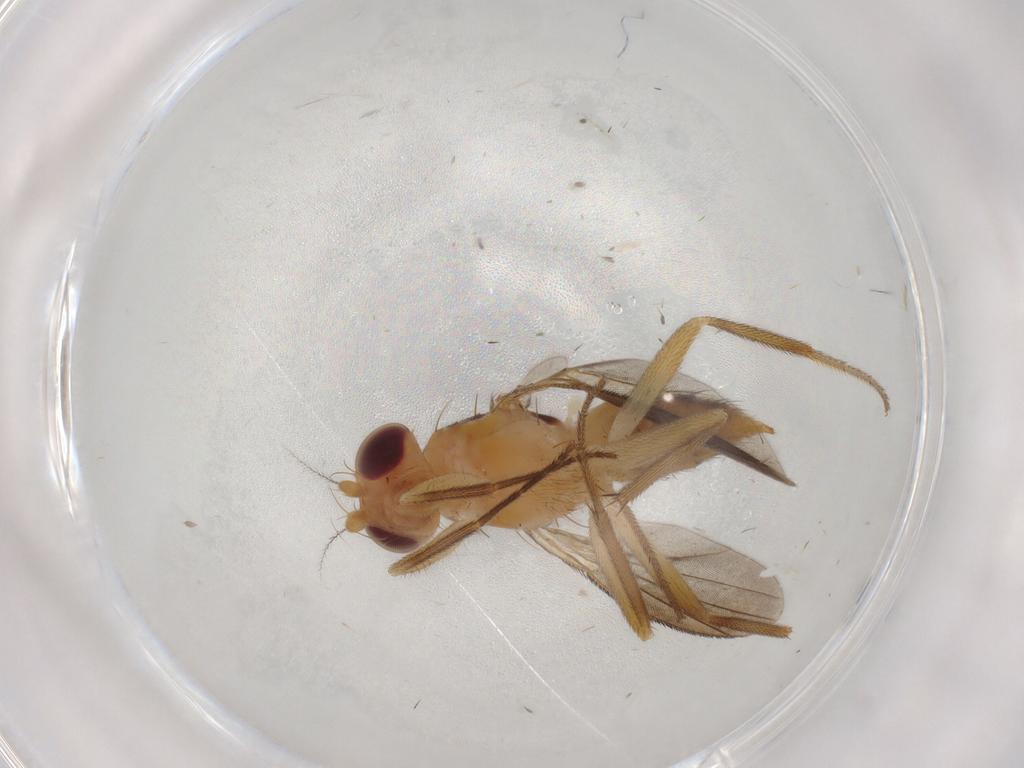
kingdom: Animalia
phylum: Arthropoda
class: Insecta
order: Diptera
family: Agromyzidae
